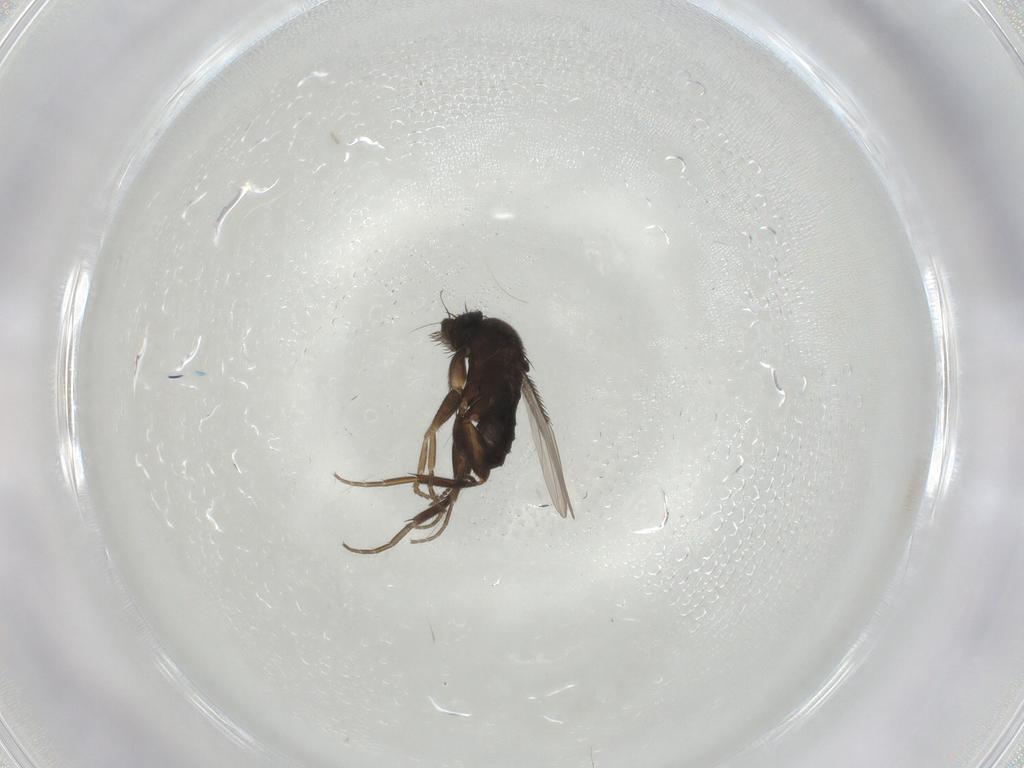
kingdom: Animalia
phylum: Arthropoda
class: Insecta
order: Diptera
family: Phoridae
